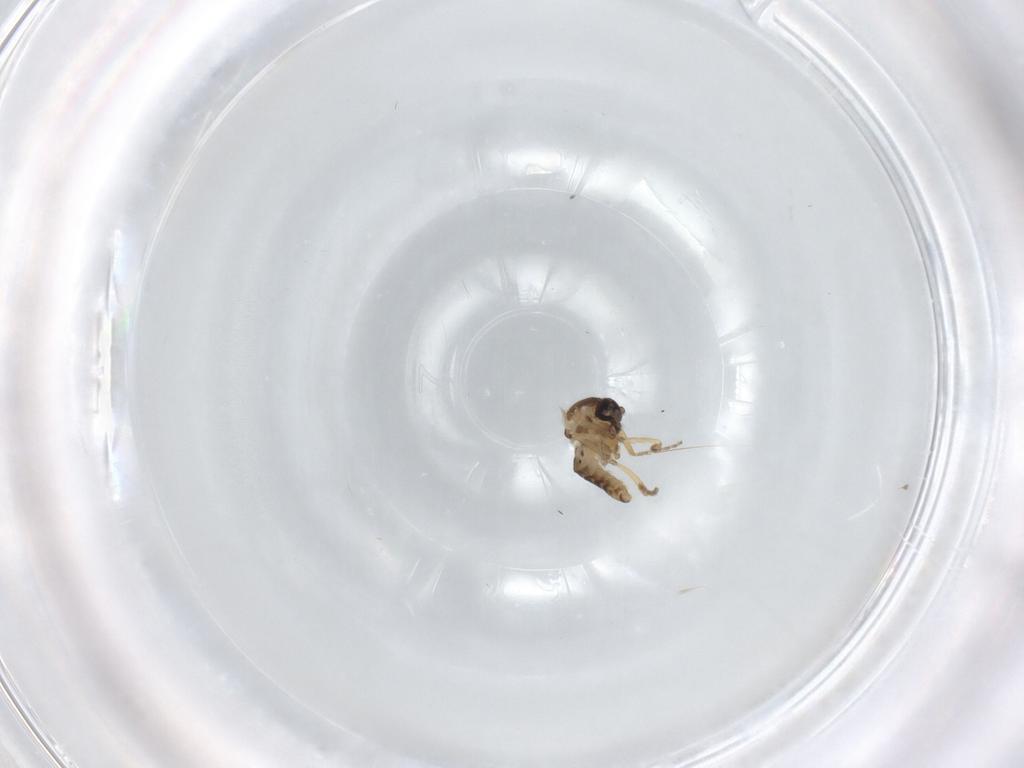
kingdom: Animalia
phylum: Arthropoda
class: Insecta
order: Diptera
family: Ceratopogonidae
